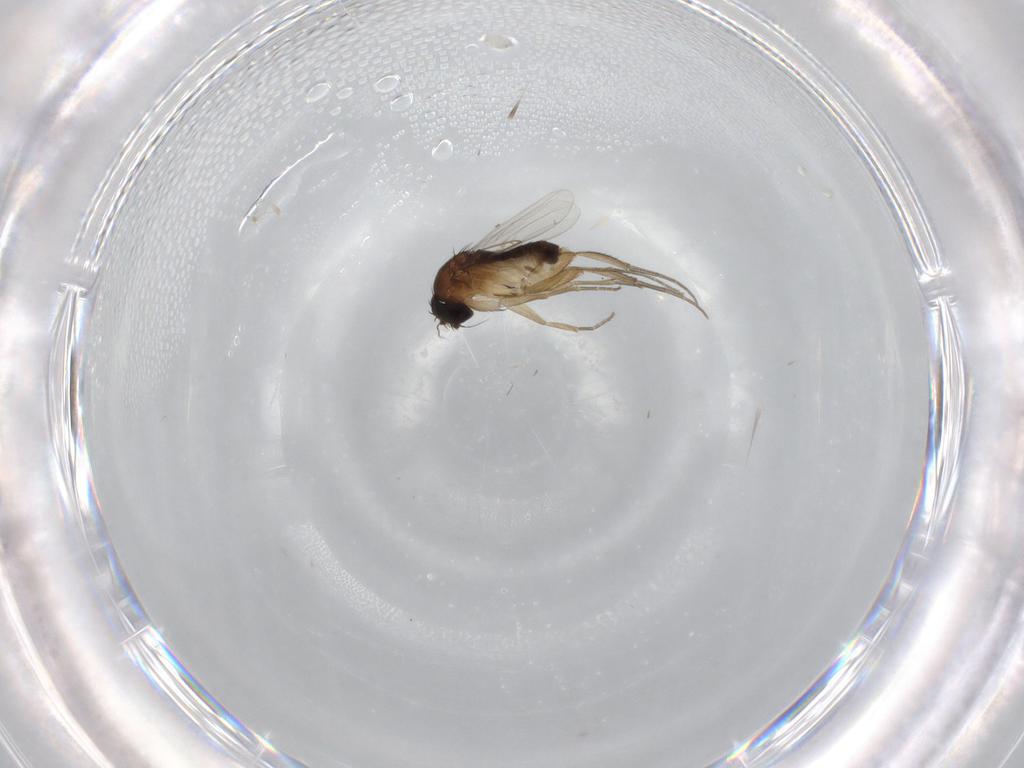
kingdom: Animalia
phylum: Arthropoda
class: Insecta
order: Diptera
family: Phoridae
